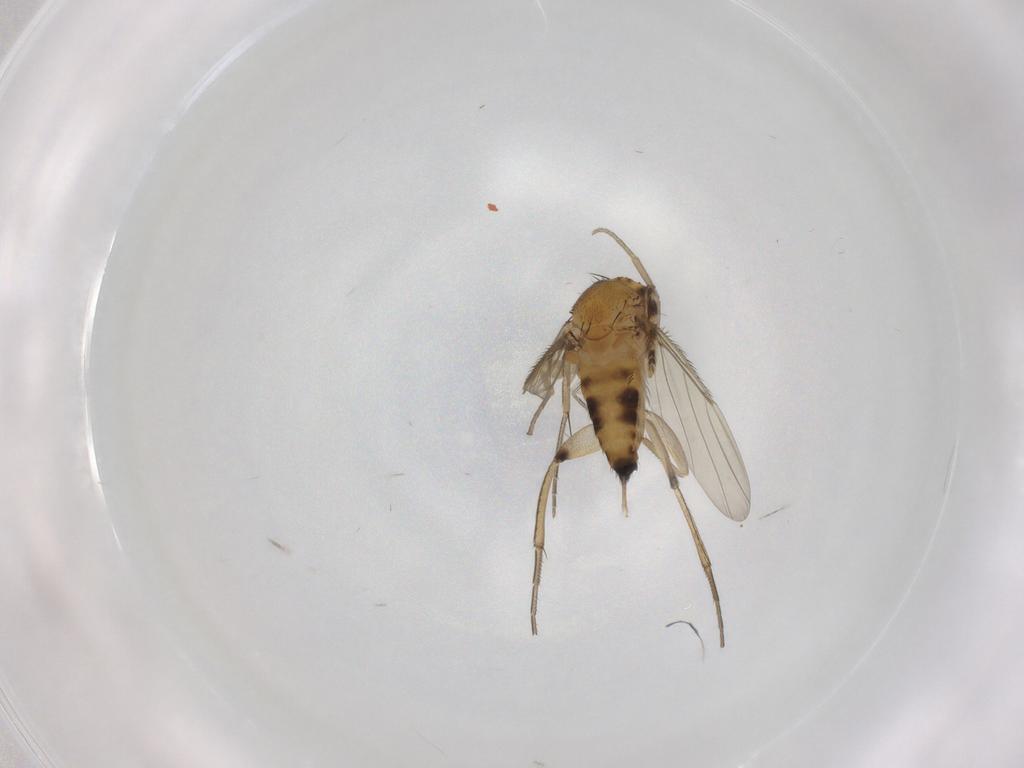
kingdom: Animalia
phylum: Arthropoda
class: Insecta
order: Diptera
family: Phoridae
